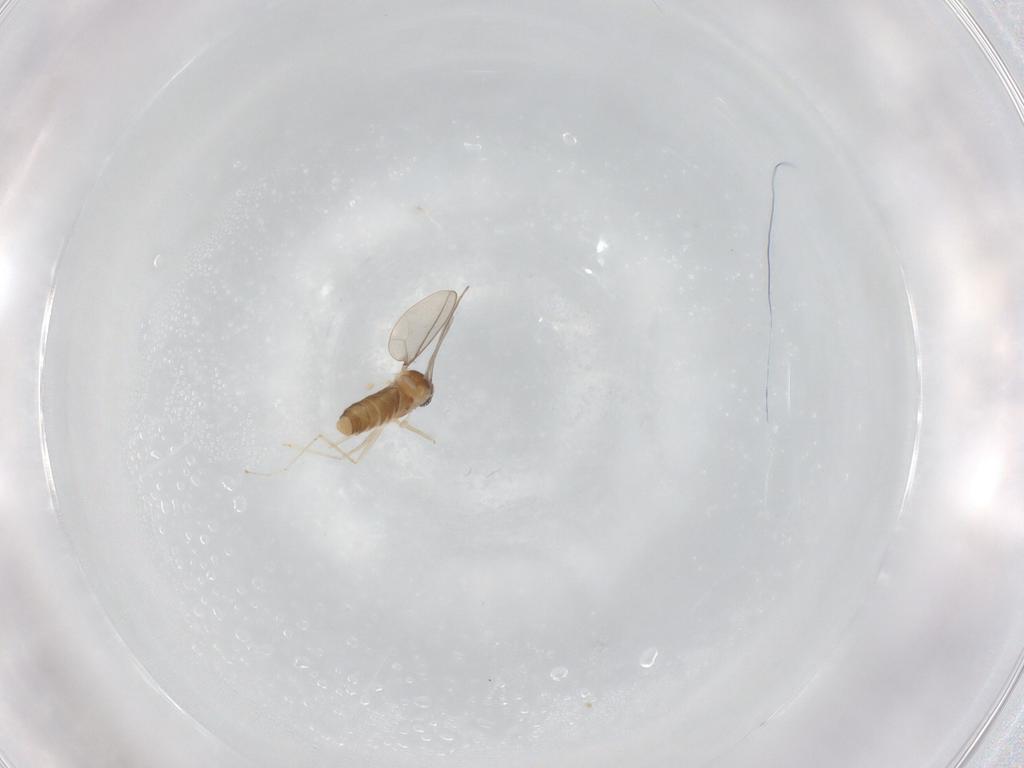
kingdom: Animalia
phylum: Arthropoda
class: Insecta
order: Diptera
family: Cecidomyiidae
